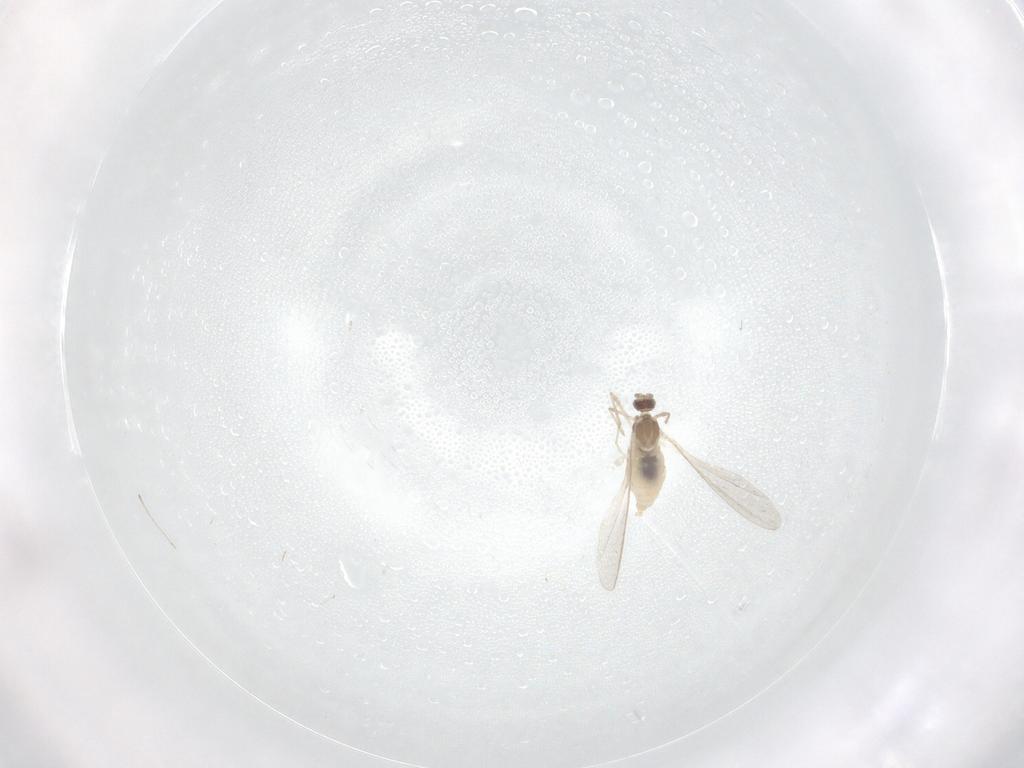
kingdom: Animalia
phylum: Arthropoda
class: Insecta
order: Diptera
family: Cecidomyiidae
